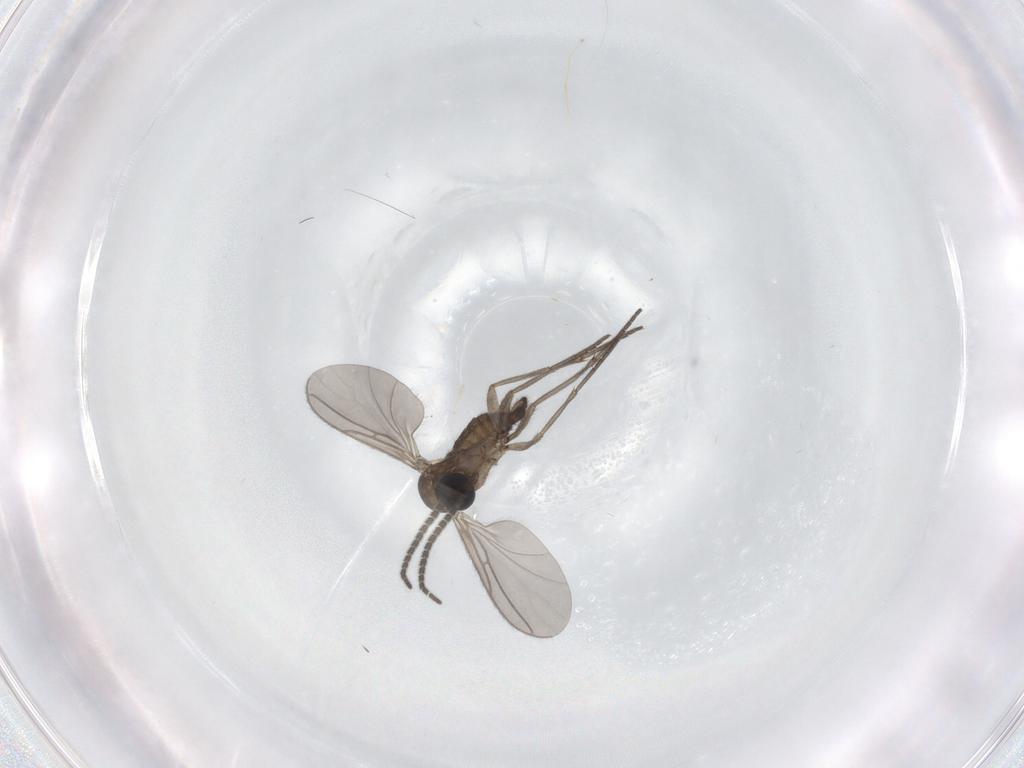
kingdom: Animalia
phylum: Arthropoda
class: Insecta
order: Diptera
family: Sciaridae
